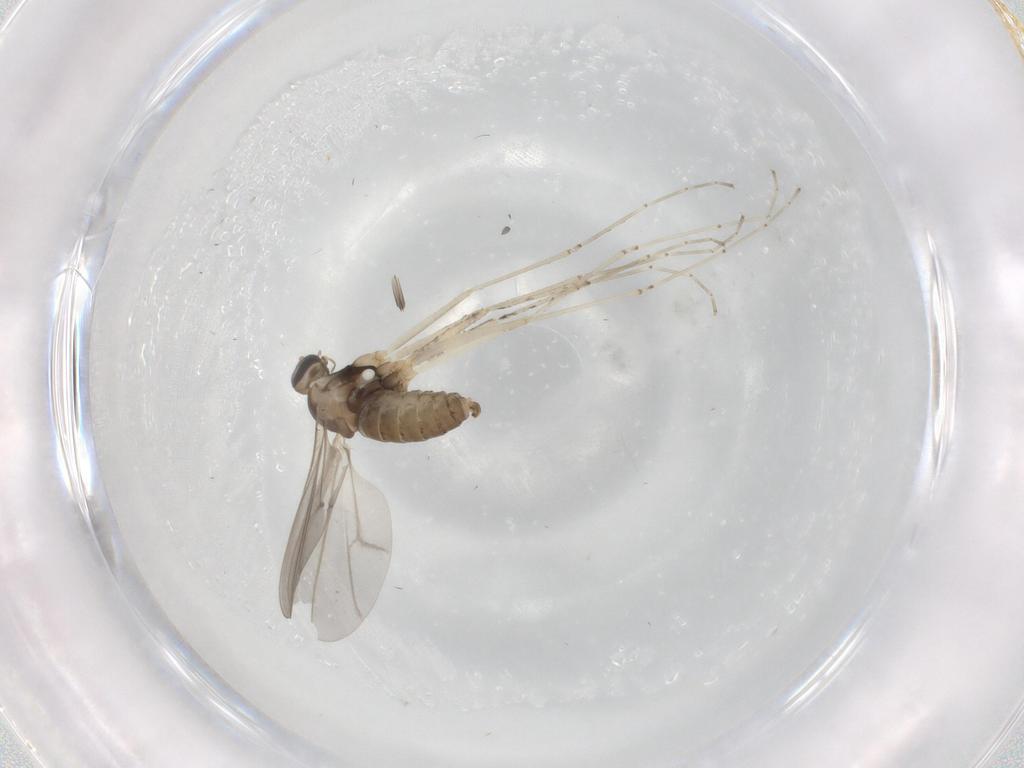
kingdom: Animalia
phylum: Arthropoda
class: Insecta
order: Diptera
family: Cecidomyiidae
